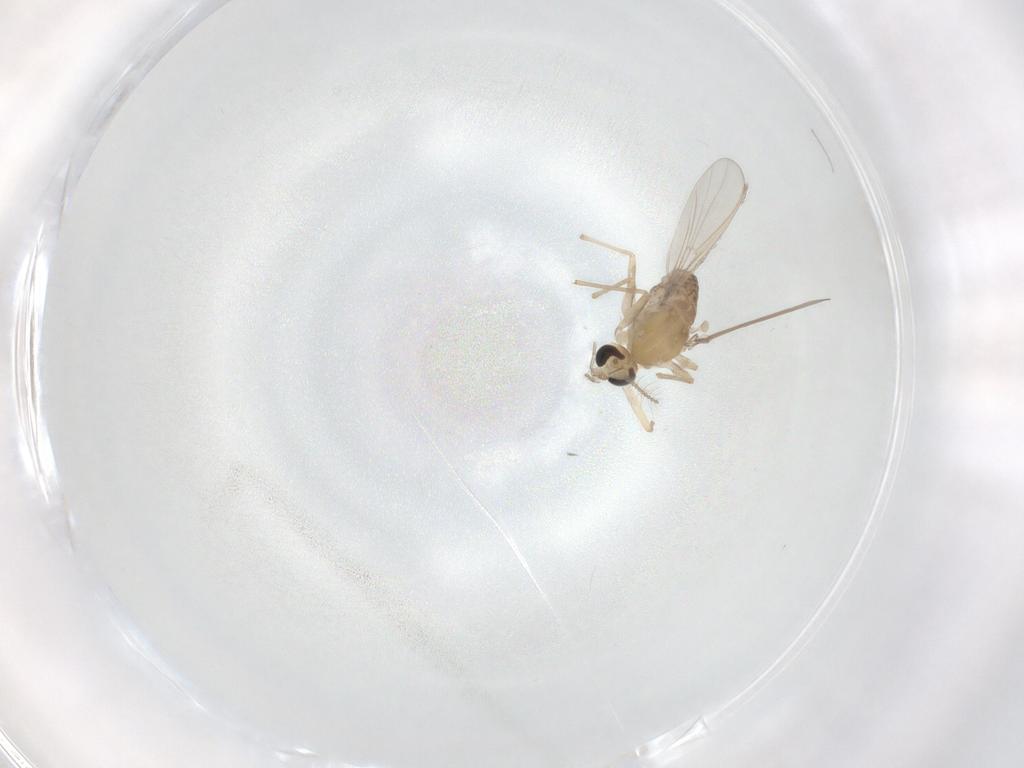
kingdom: Animalia
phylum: Arthropoda
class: Insecta
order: Diptera
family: Chironomidae
